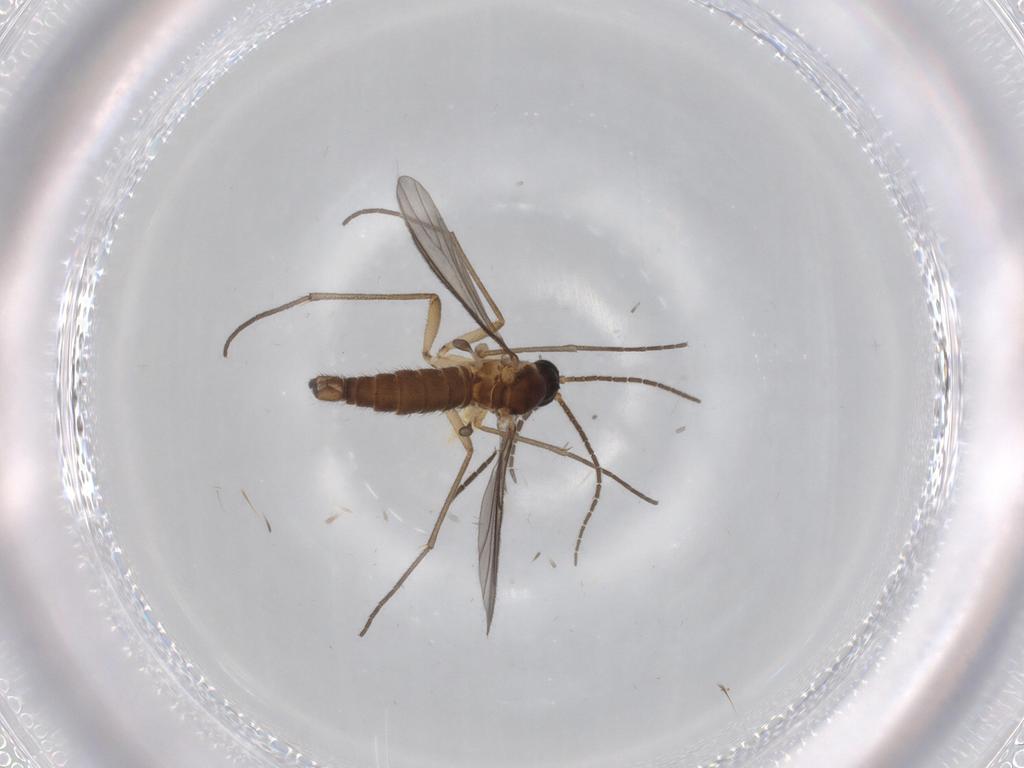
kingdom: Animalia
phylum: Arthropoda
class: Insecta
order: Diptera
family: Sciaridae
